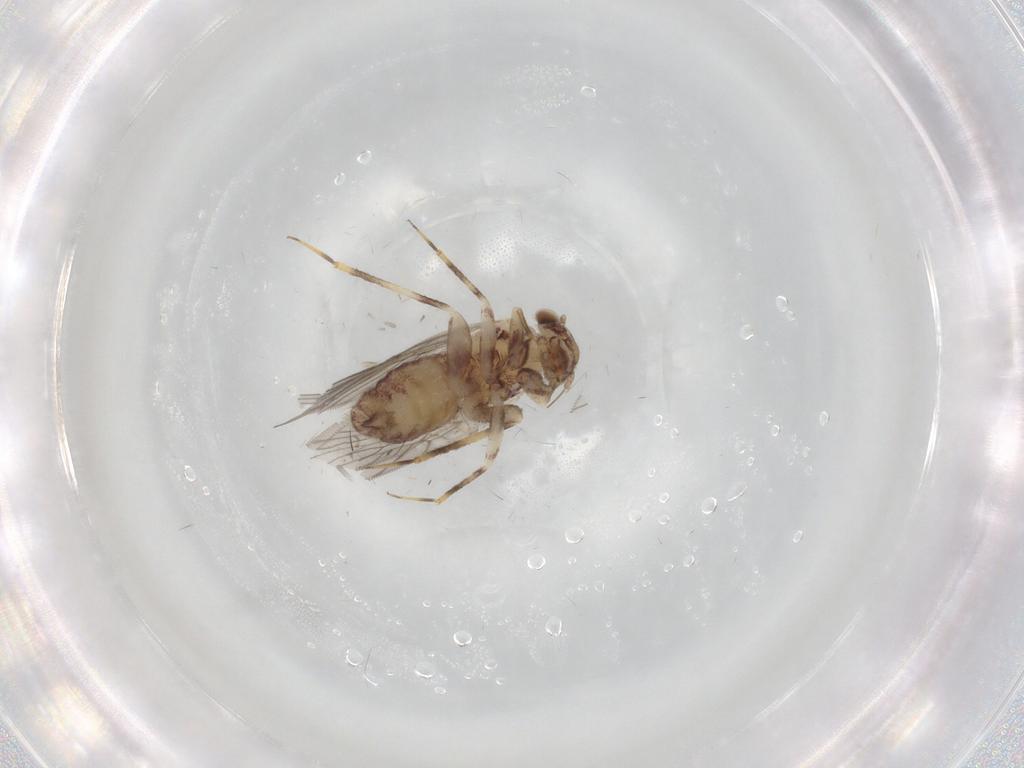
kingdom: Animalia
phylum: Arthropoda
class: Insecta
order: Psocodea
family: Lepidopsocidae
